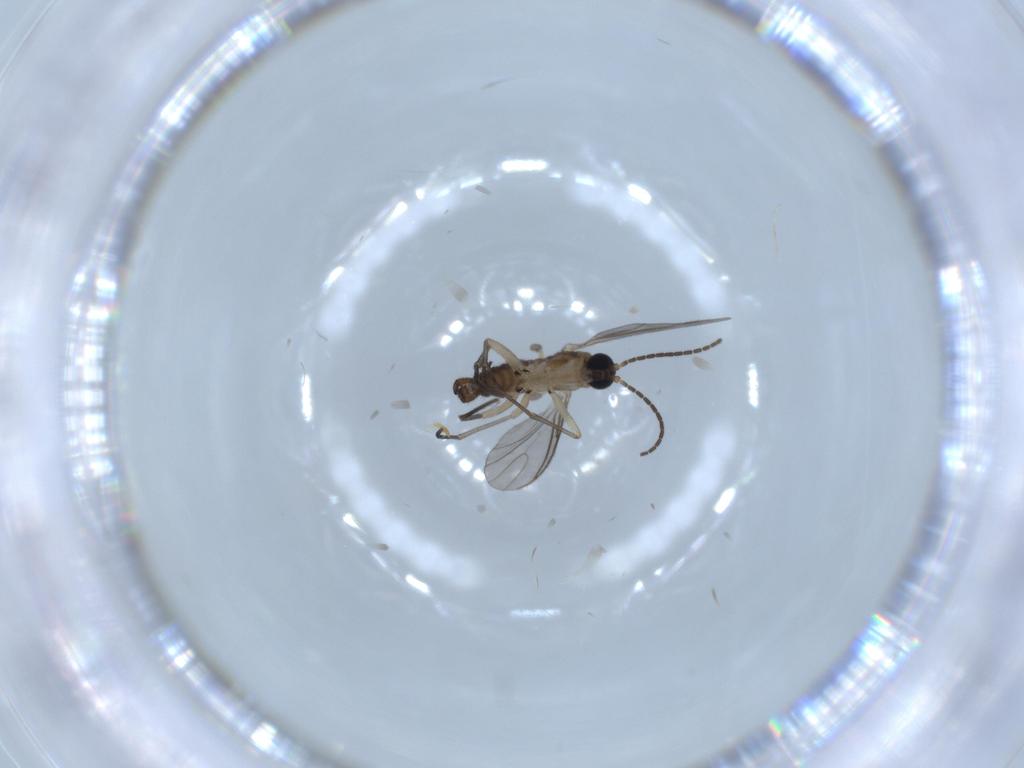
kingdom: Animalia
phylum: Arthropoda
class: Insecta
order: Diptera
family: Sciaridae
